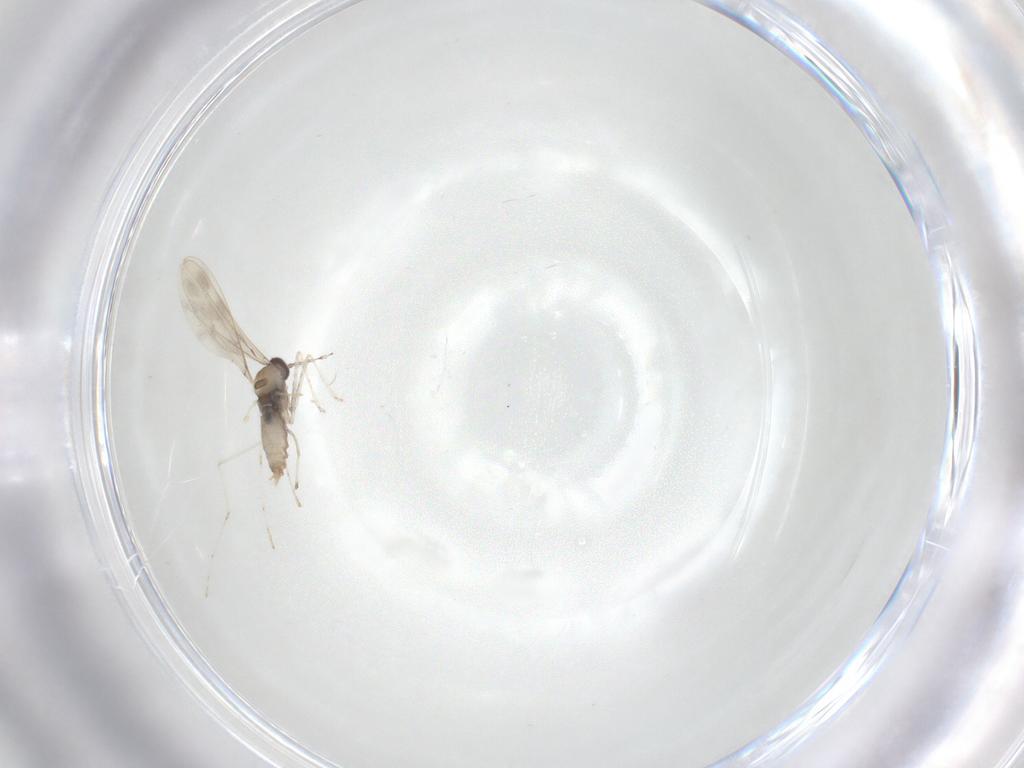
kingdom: Animalia
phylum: Arthropoda
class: Insecta
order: Diptera
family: Cecidomyiidae
